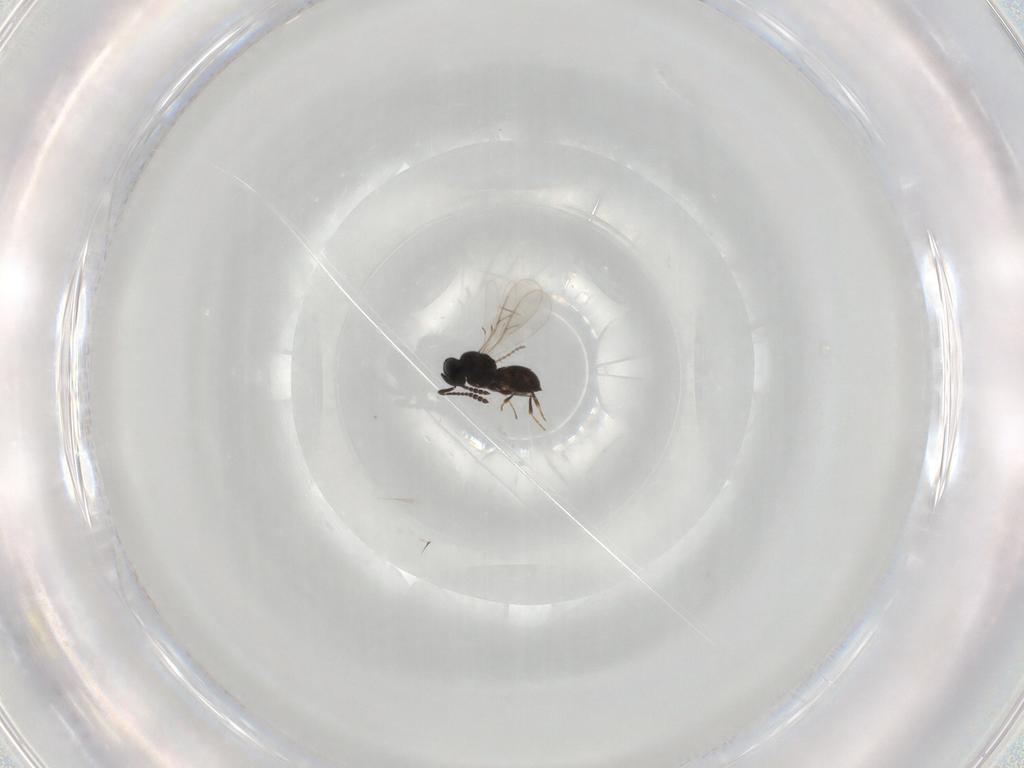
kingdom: Animalia
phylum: Arthropoda
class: Insecta
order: Hymenoptera
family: Scelionidae
